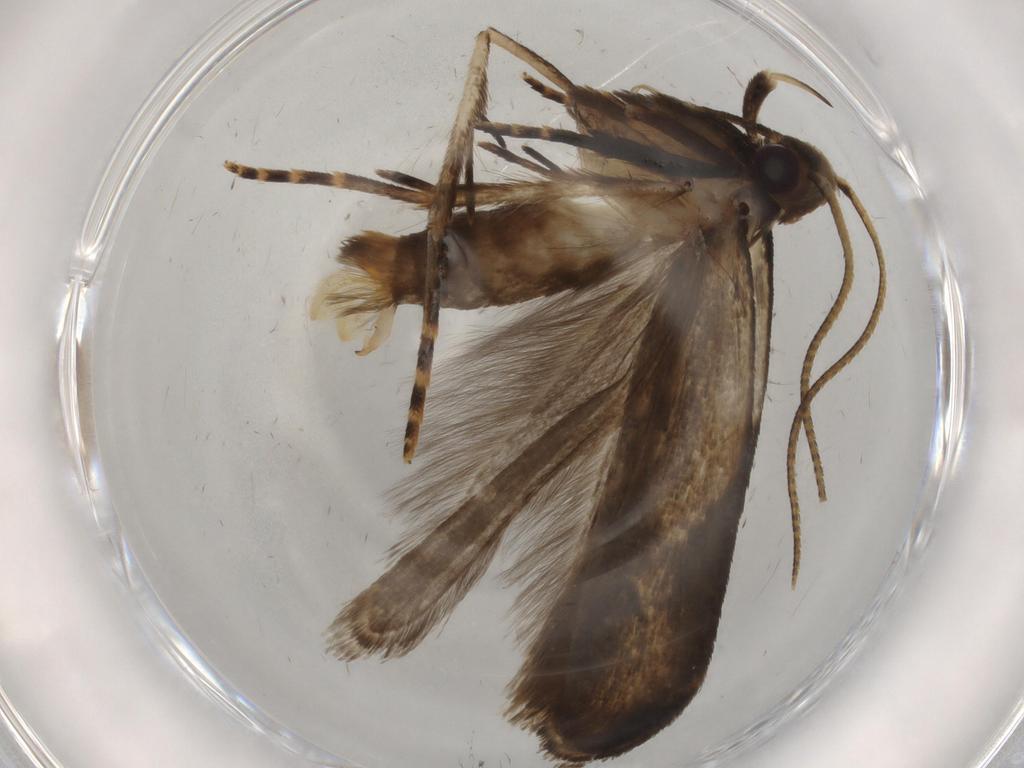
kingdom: Animalia
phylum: Arthropoda
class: Insecta
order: Lepidoptera
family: Gelechiidae
